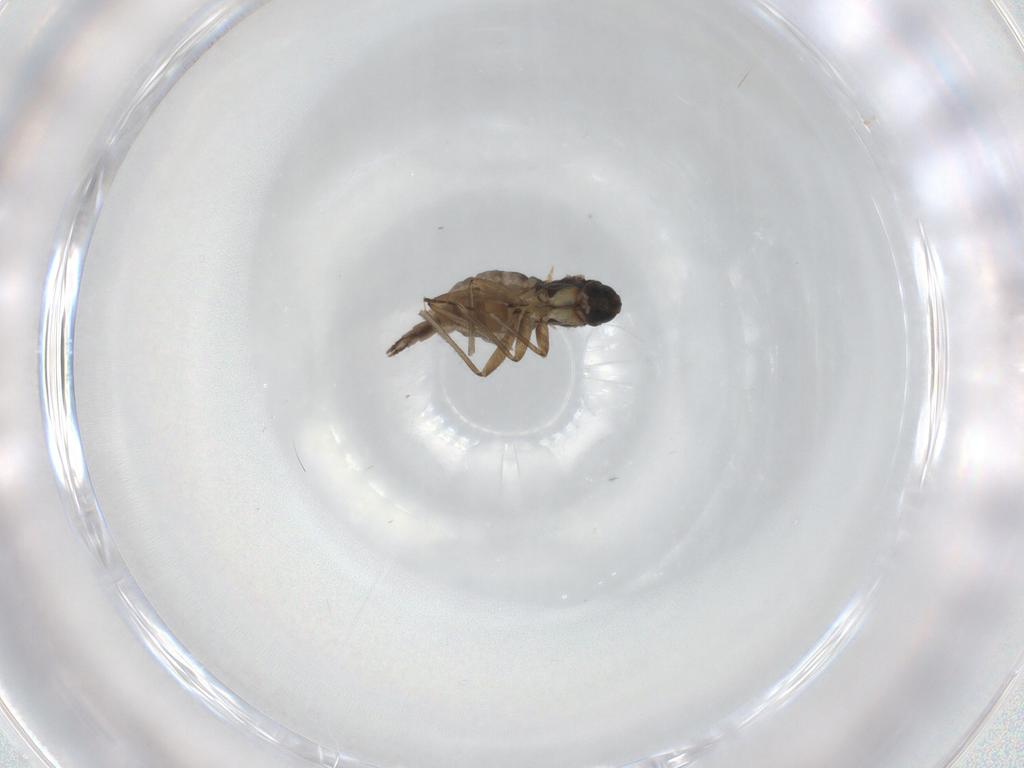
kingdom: Animalia
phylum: Arthropoda
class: Insecta
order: Diptera
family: Sciaridae
